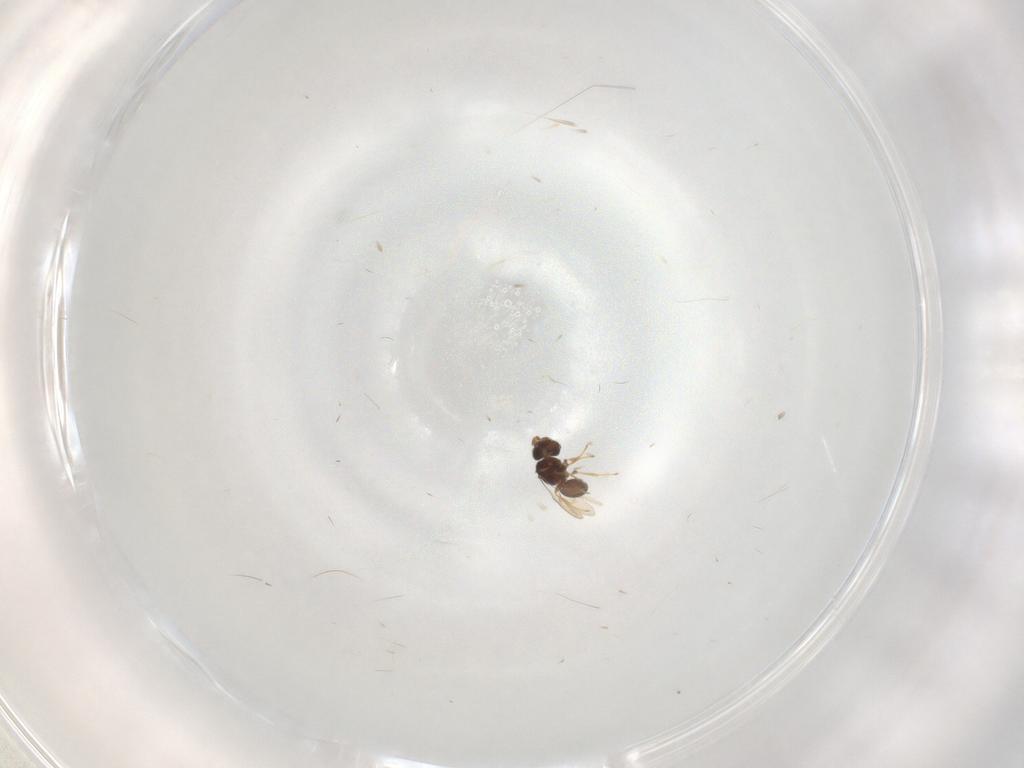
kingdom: Animalia
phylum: Arthropoda
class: Insecta
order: Hymenoptera
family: Scelionidae
